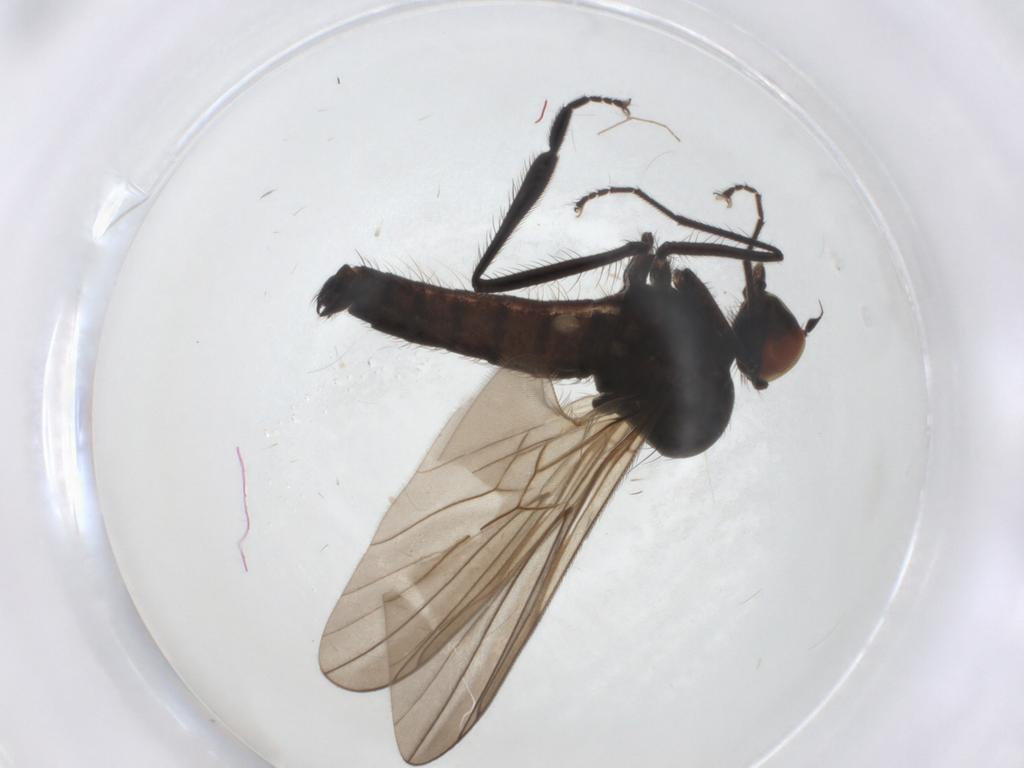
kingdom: Animalia
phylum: Arthropoda
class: Insecta
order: Diptera
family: Hybotidae
